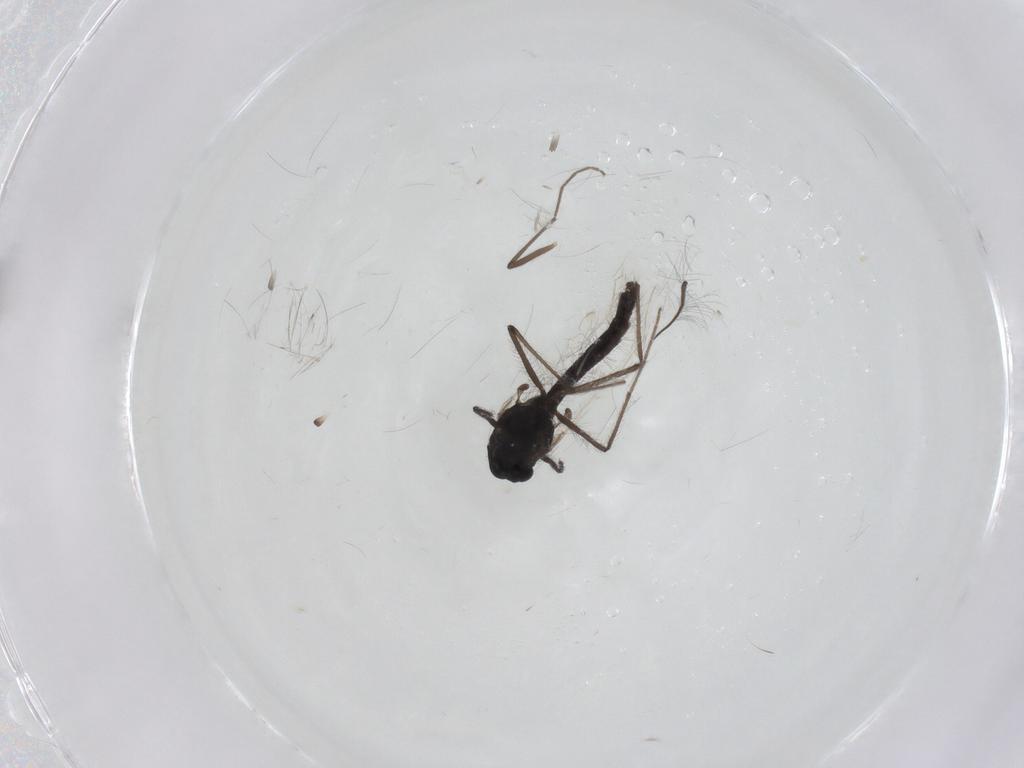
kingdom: Animalia
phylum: Arthropoda
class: Insecta
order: Diptera
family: Chironomidae
